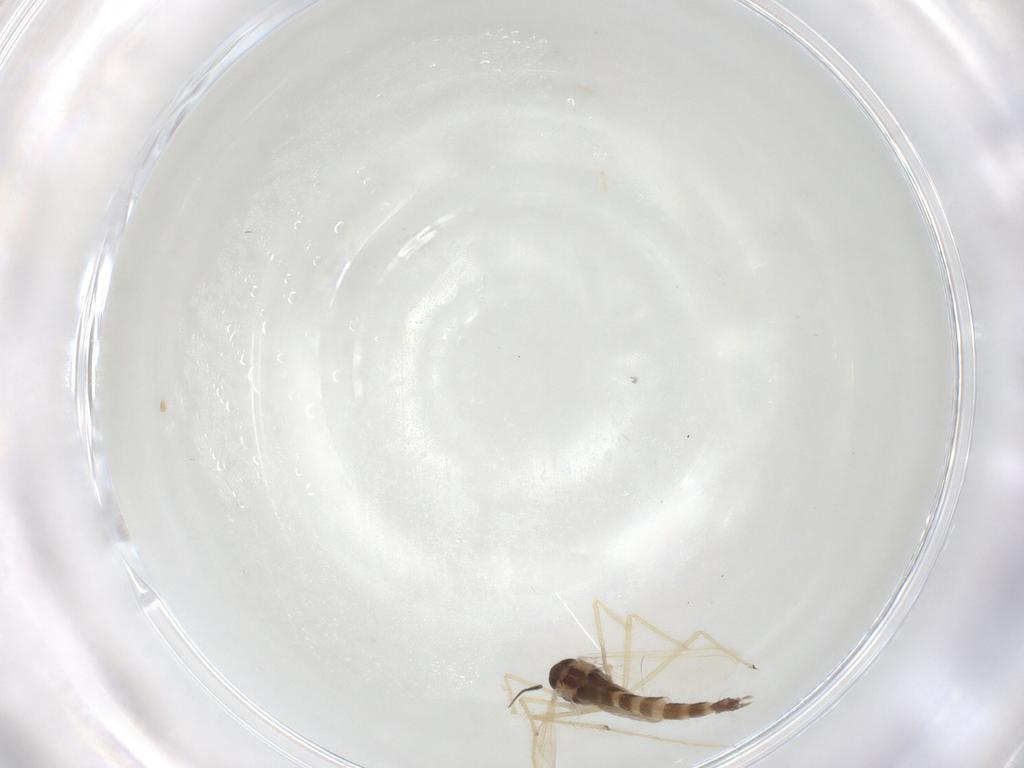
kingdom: Animalia
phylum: Arthropoda
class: Insecta
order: Diptera
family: Chironomidae
